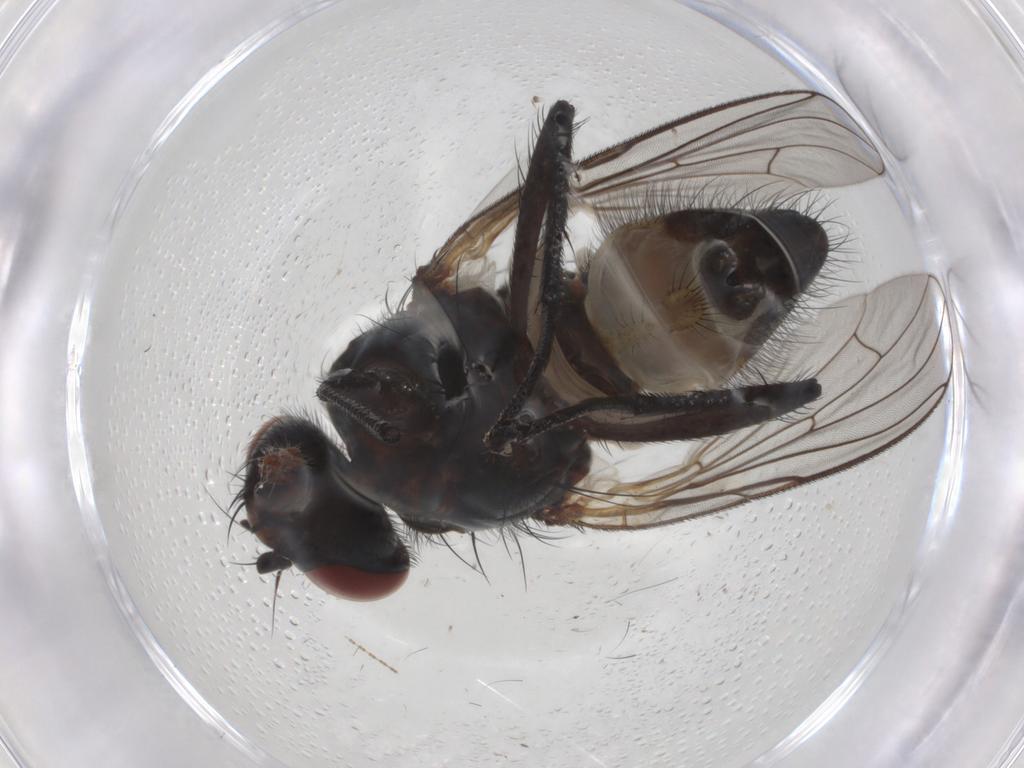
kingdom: Animalia
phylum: Arthropoda
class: Insecta
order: Diptera
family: Anthomyiidae
